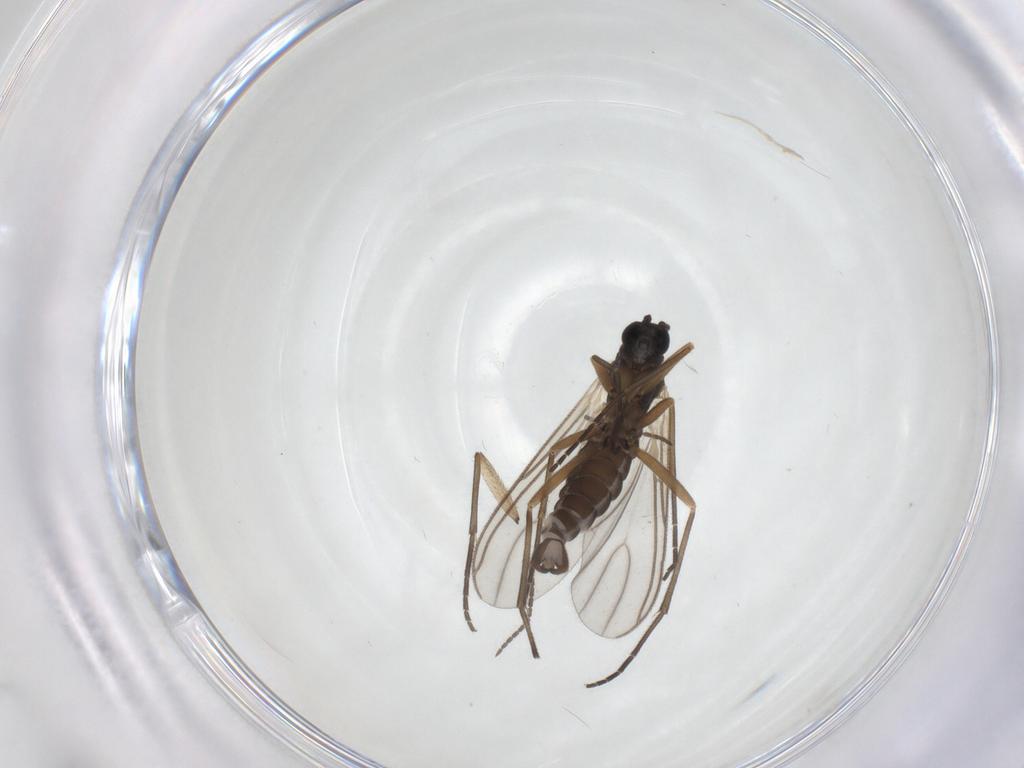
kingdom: Animalia
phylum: Arthropoda
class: Insecta
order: Diptera
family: Sciaridae
